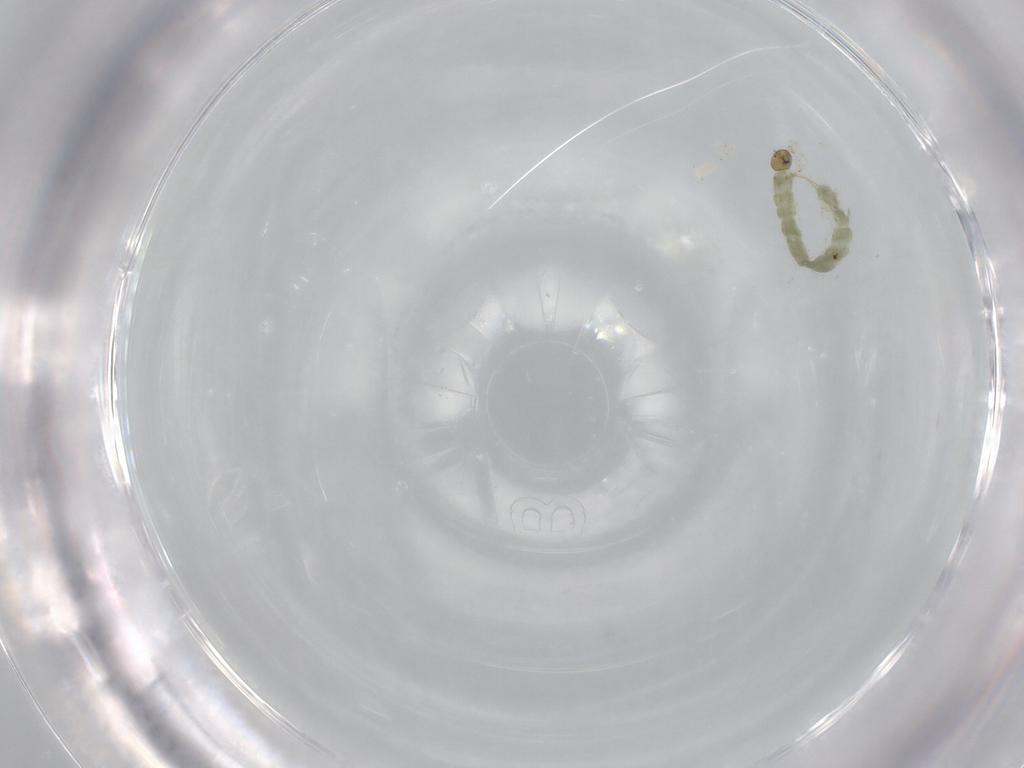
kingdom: Animalia
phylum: Arthropoda
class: Insecta
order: Diptera
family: Chironomidae
